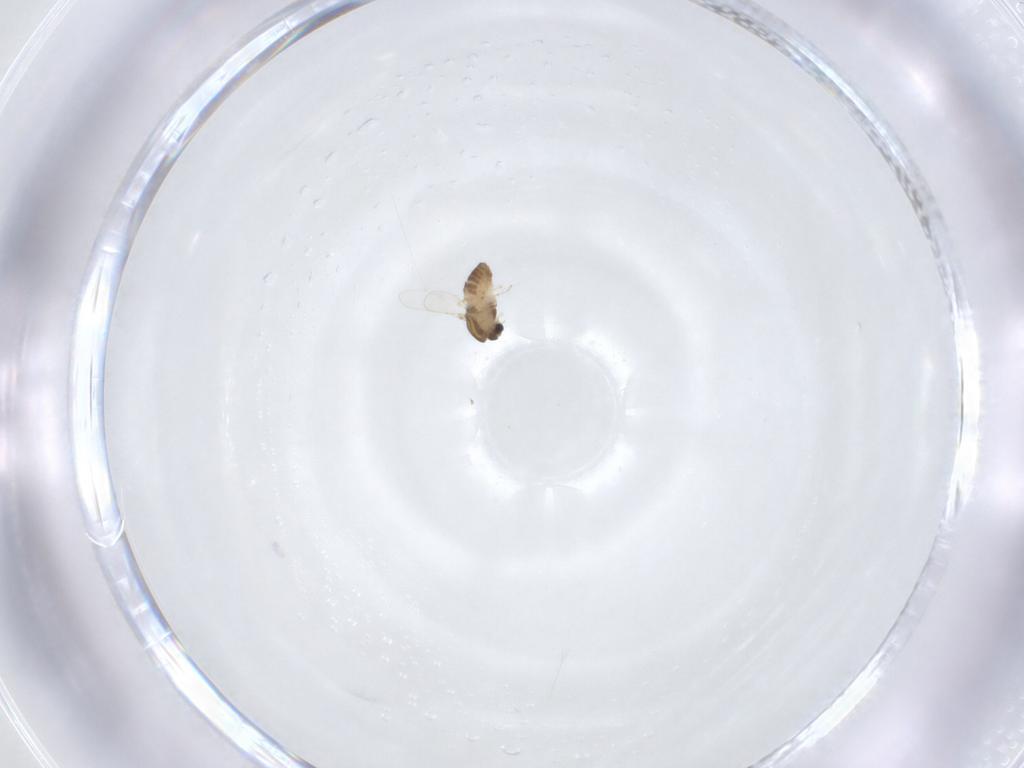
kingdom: Animalia
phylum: Arthropoda
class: Insecta
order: Diptera
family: Chironomidae
